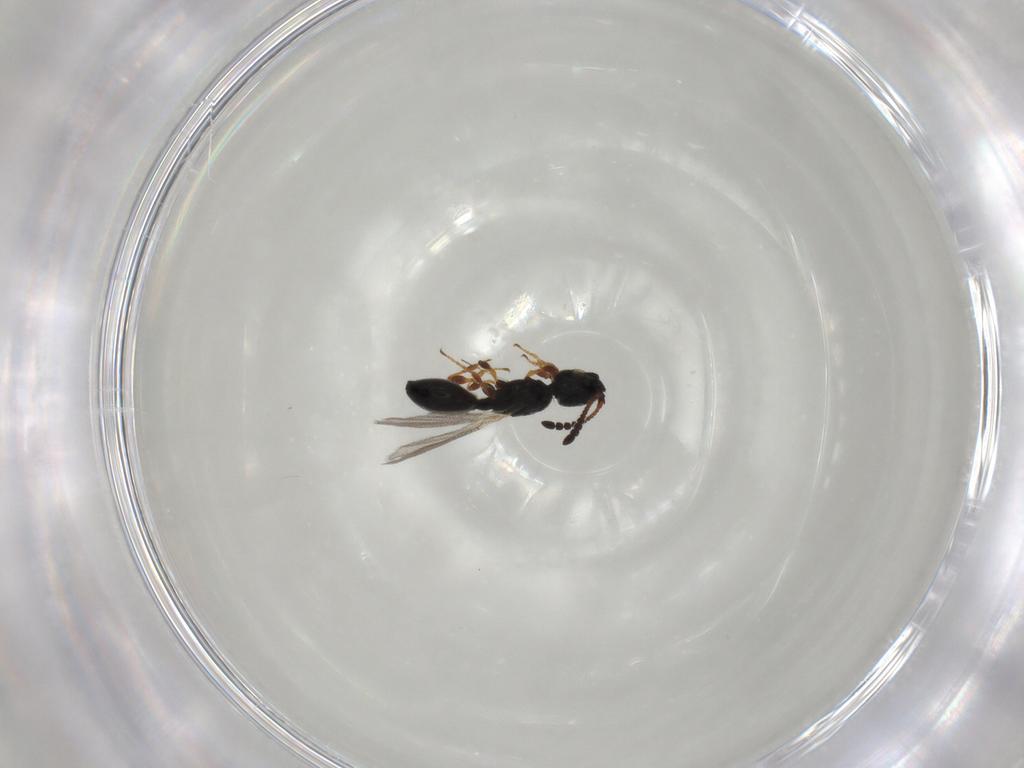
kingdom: Animalia
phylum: Arthropoda
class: Insecta
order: Hymenoptera
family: Diapriidae
